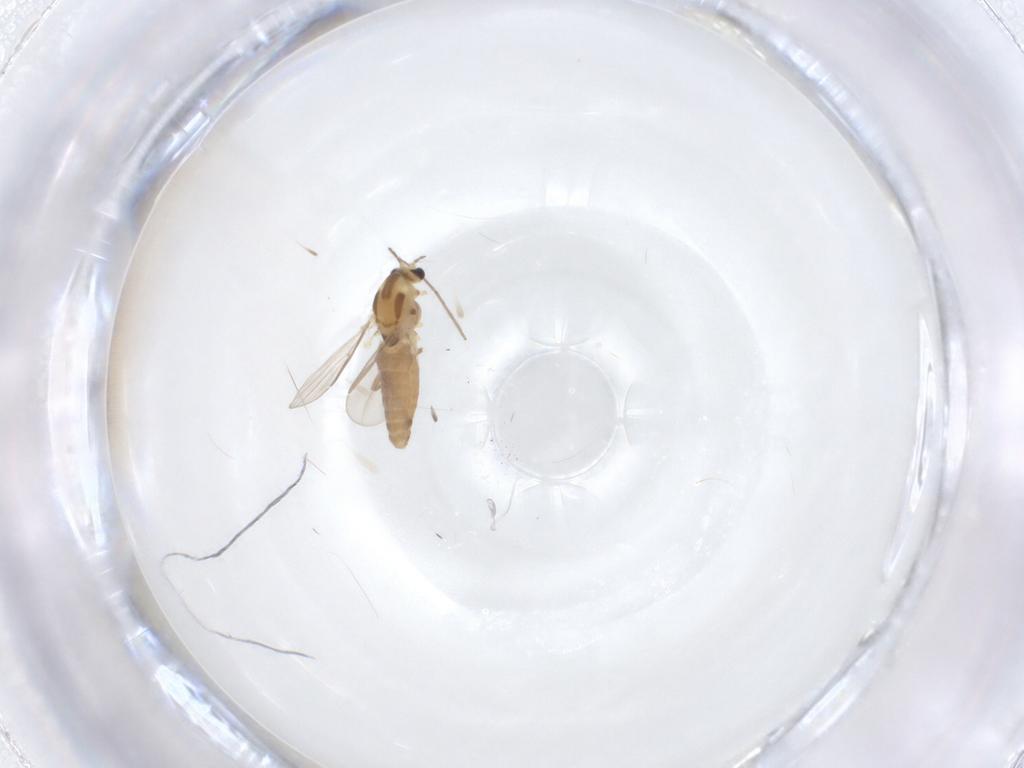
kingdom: Animalia
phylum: Arthropoda
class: Insecta
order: Diptera
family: Chironomidae
